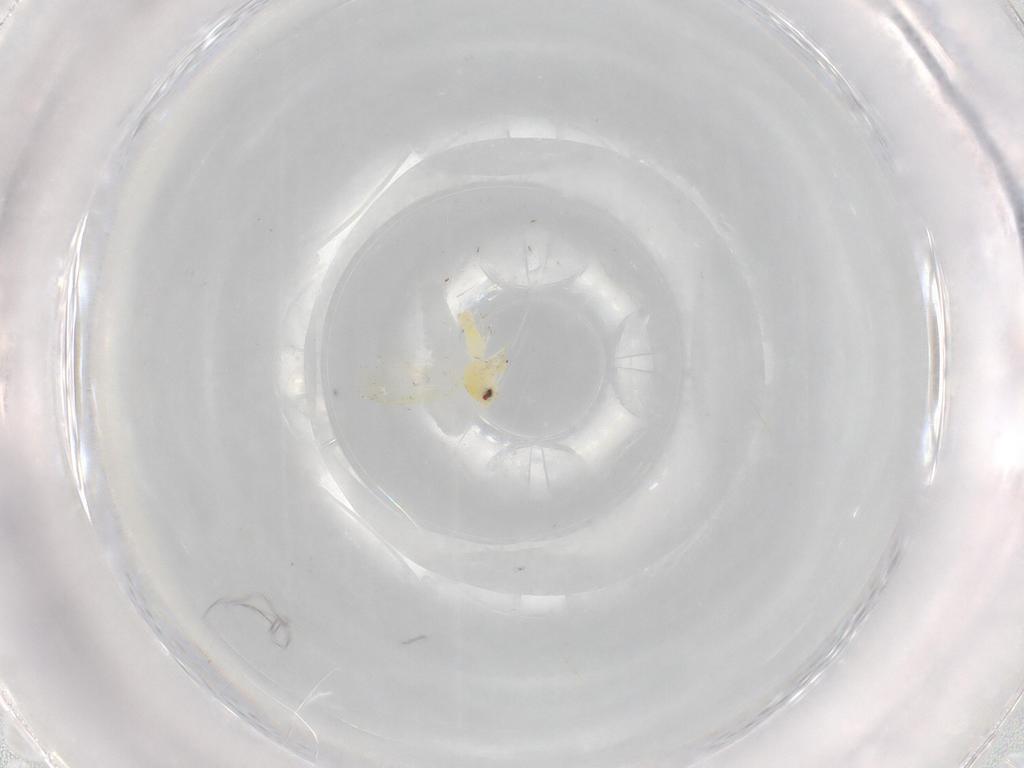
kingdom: Animalia
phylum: Arthropoda
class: Insecta
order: Hemiptera
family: Aleyrodidae
